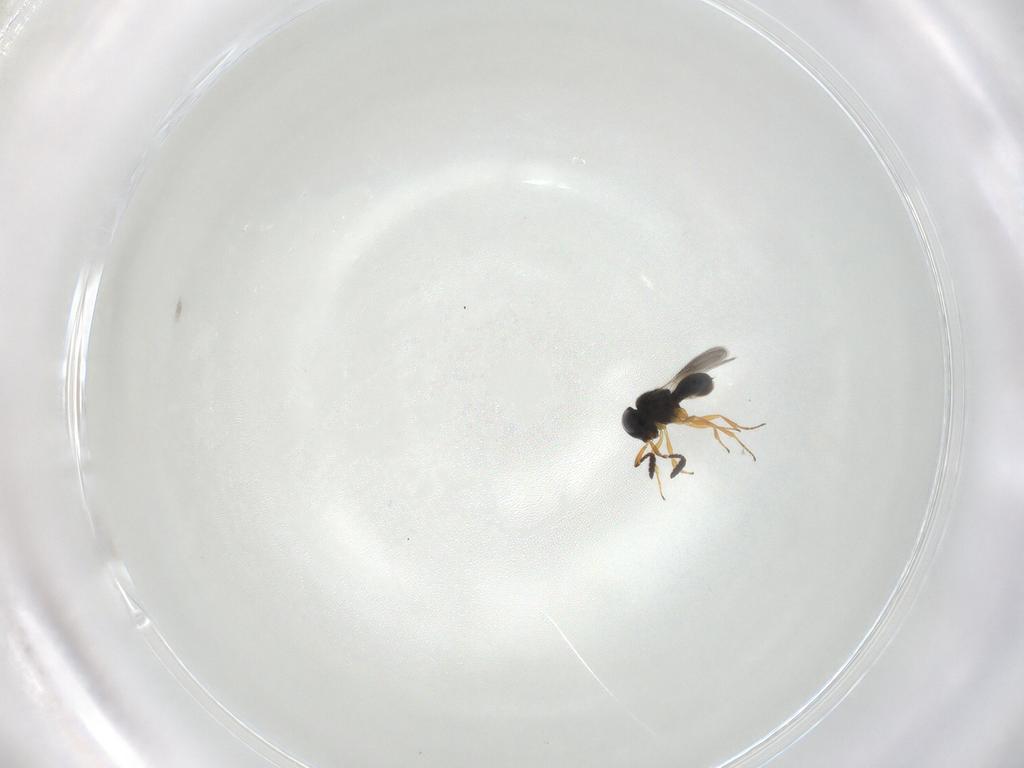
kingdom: Animalia
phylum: Arthropoda
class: Insecta
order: Hymenoptera
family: Scelionidae
